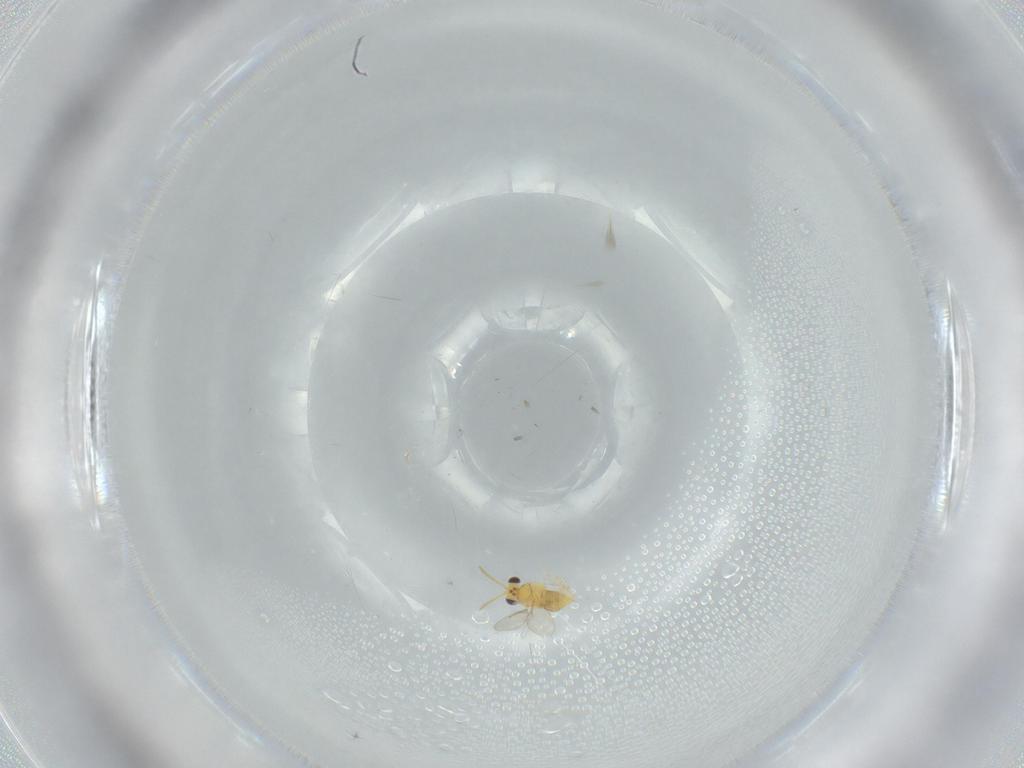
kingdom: Animalia
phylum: Arthropoda
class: Insecta
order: Hymenoptera
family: Aphelinidae
